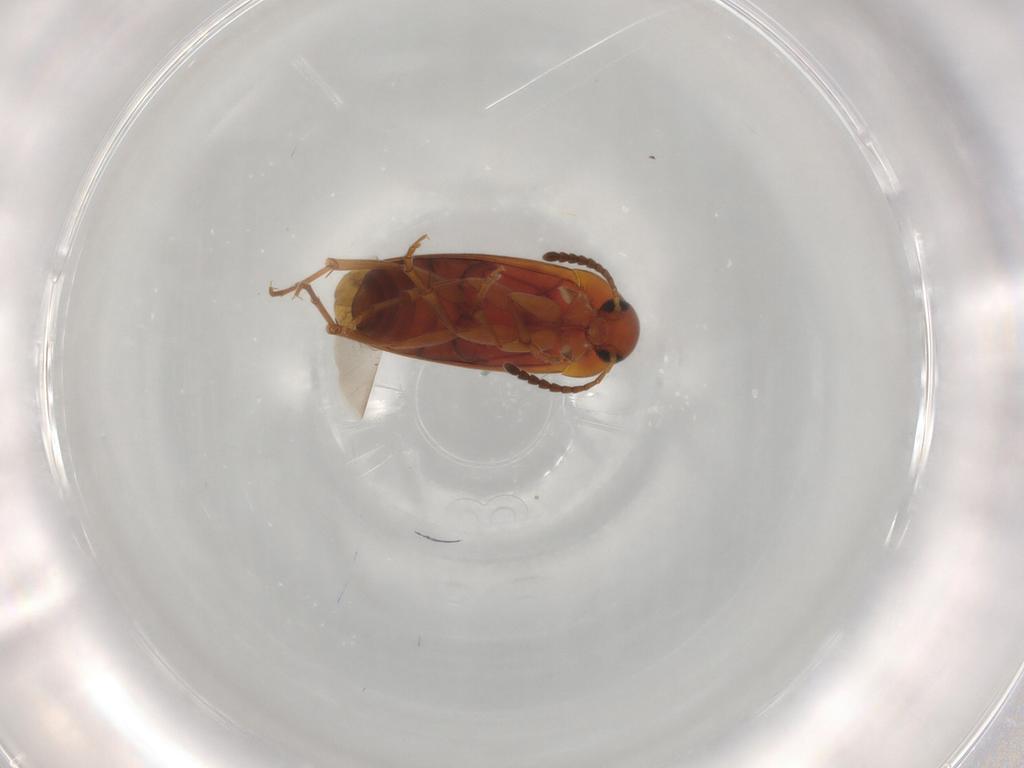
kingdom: Animalia
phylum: Arthropoda
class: Insecta
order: Coleoptera
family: Scraptiidae
